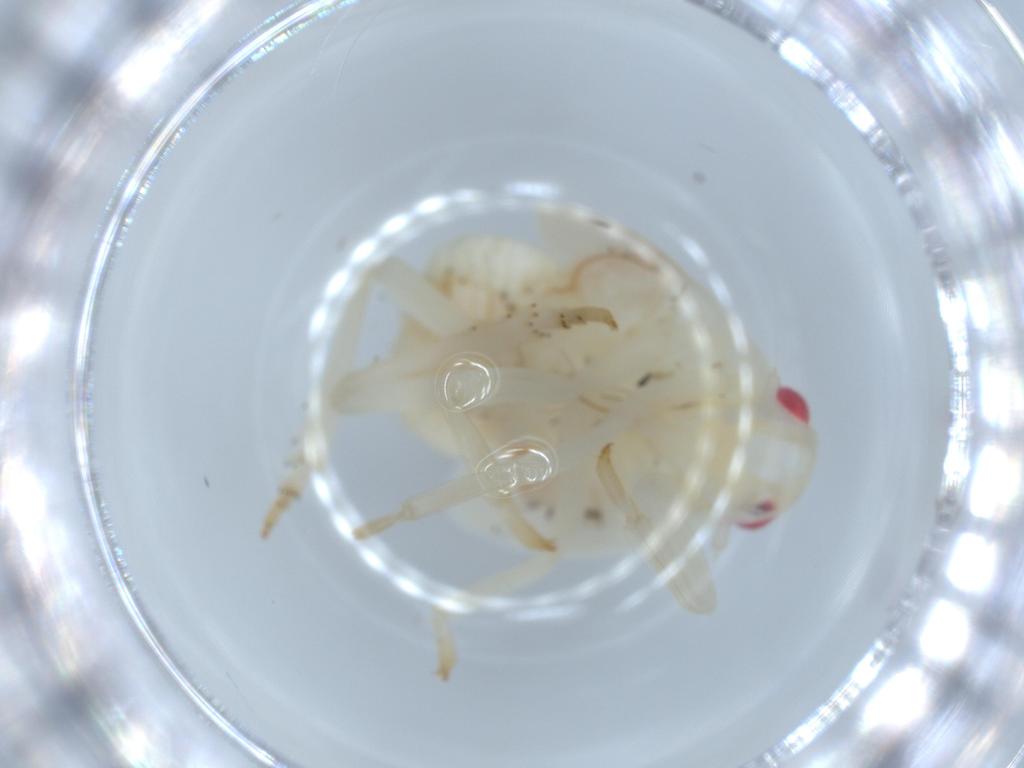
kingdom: Animalia
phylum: Arthropoda
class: Insecta
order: Hemiptera
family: Flatidae
